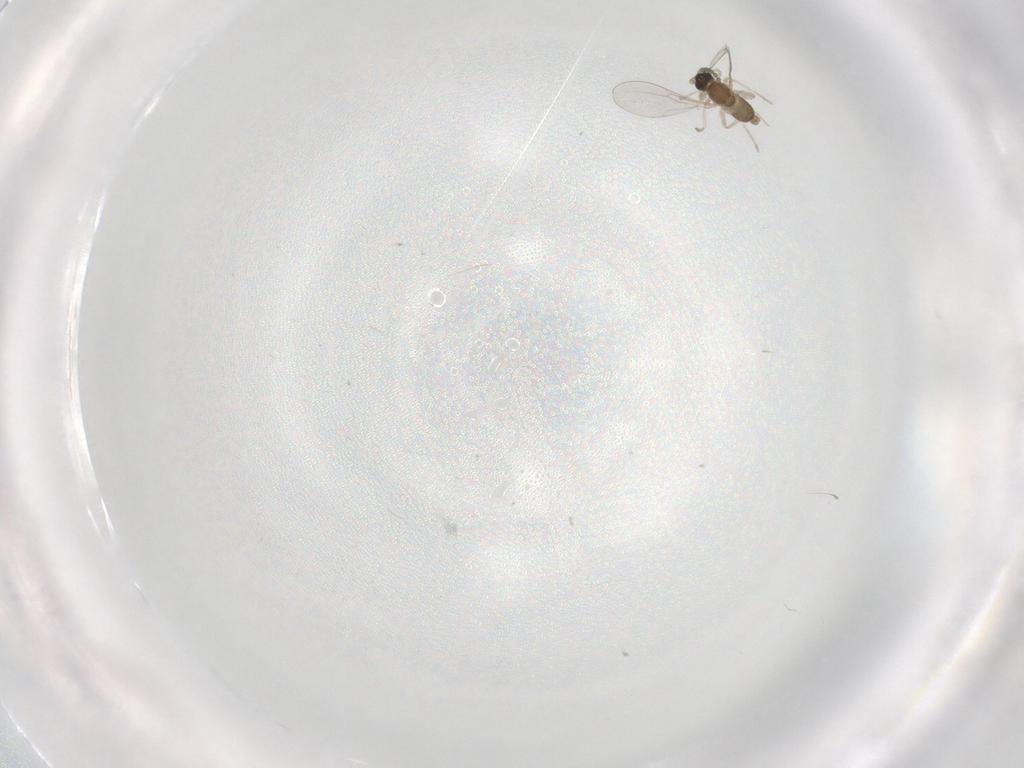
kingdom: Animalia
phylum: Arthropoda
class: Insecta
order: Diptera
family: Cecidomyiidae
